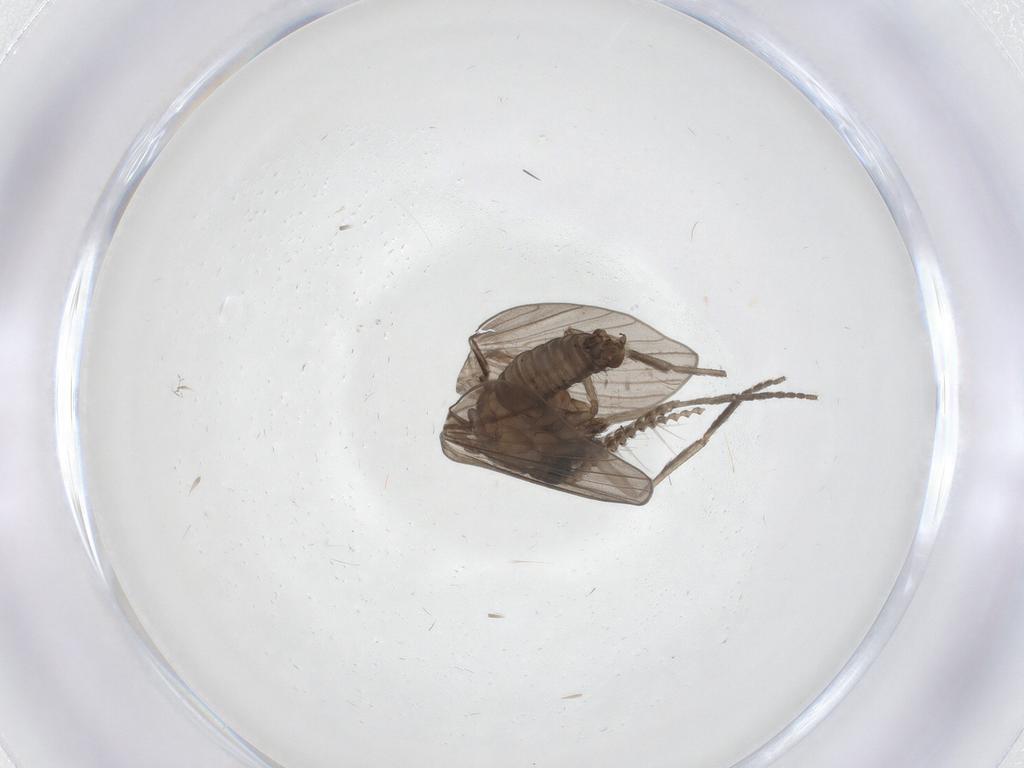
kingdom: Animalia
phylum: Arthropoda
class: Insecta
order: Diptera
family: Psychodidae
